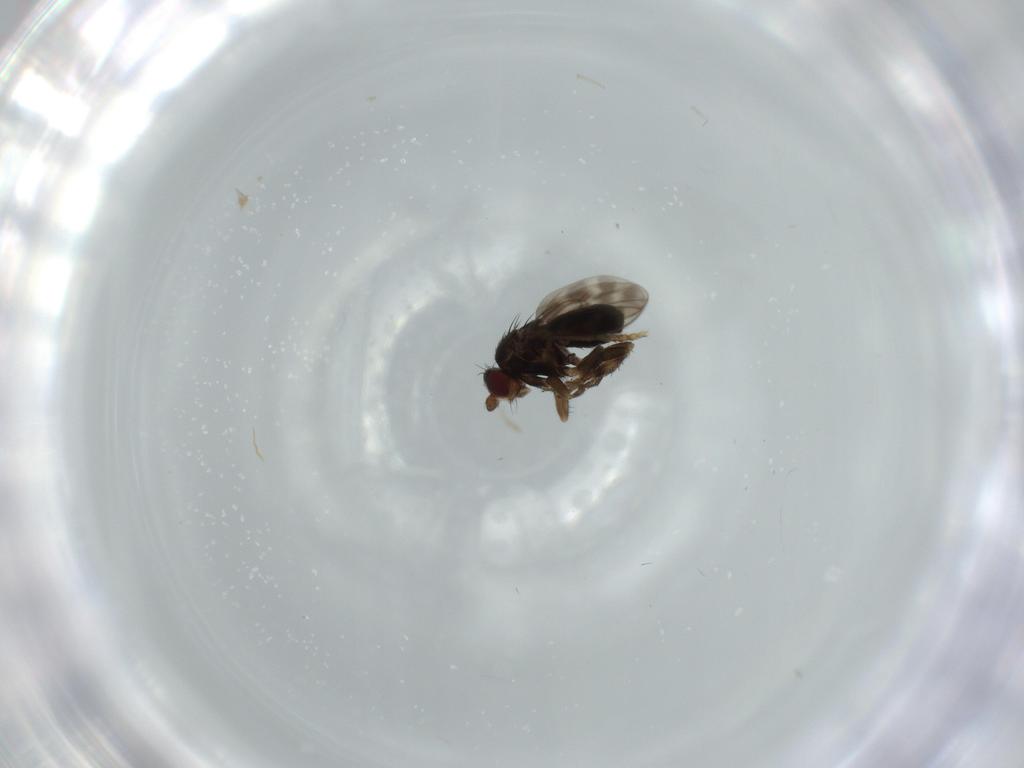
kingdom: Animalia
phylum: Arthropoda
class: Insecta
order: Diptera
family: Sphaeroceridae
